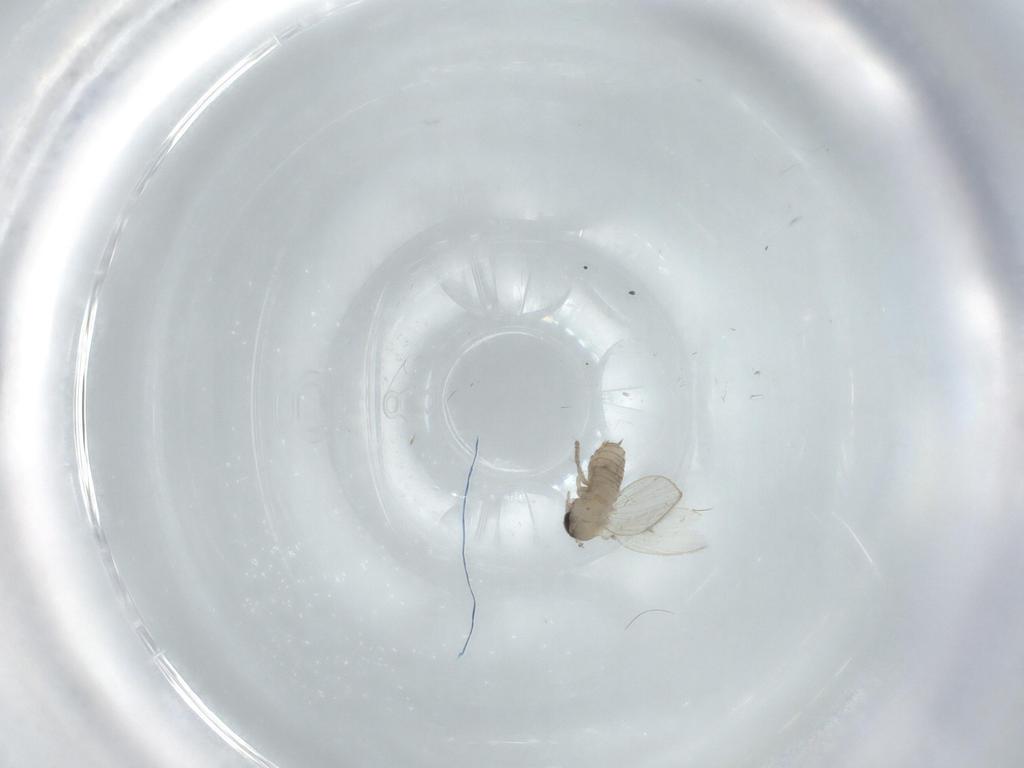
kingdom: Animalia
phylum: Arthropoda
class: Insecta
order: Diptera
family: Psychodidae
